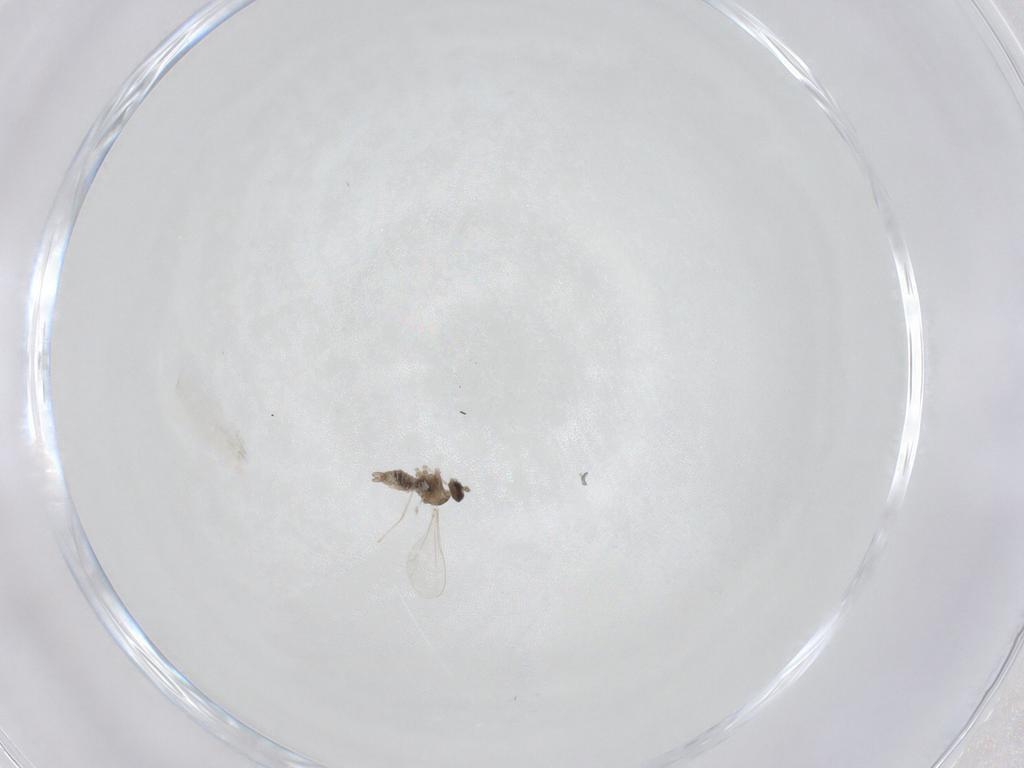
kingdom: Animalia
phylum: Arthropoda
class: Insecta
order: Diptera
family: Cecidomyiidae
